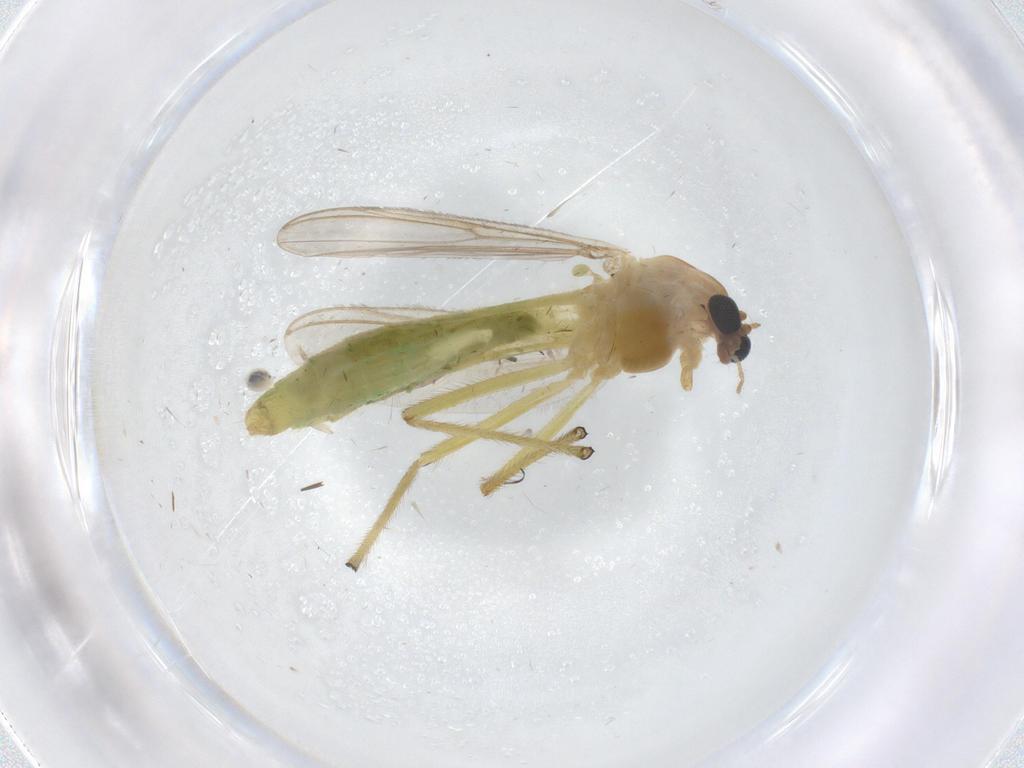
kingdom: Animalia
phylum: Arthropoda
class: Insecta
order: Diptera
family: Chironomidae
